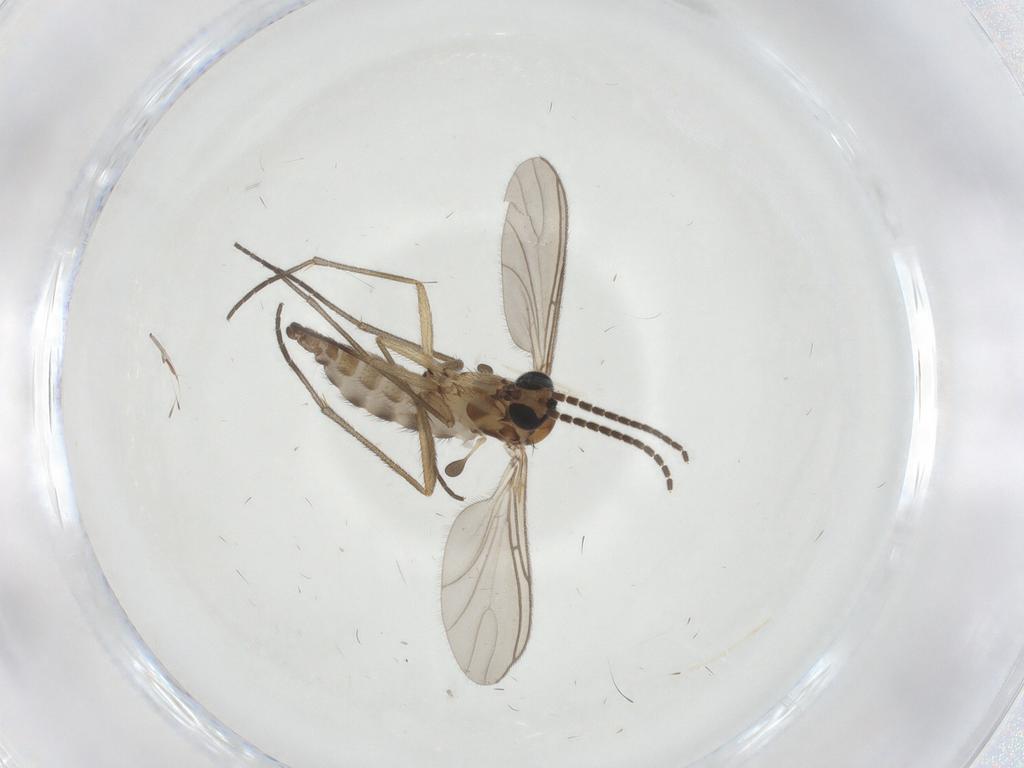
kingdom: Animalia
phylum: Arthropoda
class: Insecta
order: Diptera
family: Sciaridae
